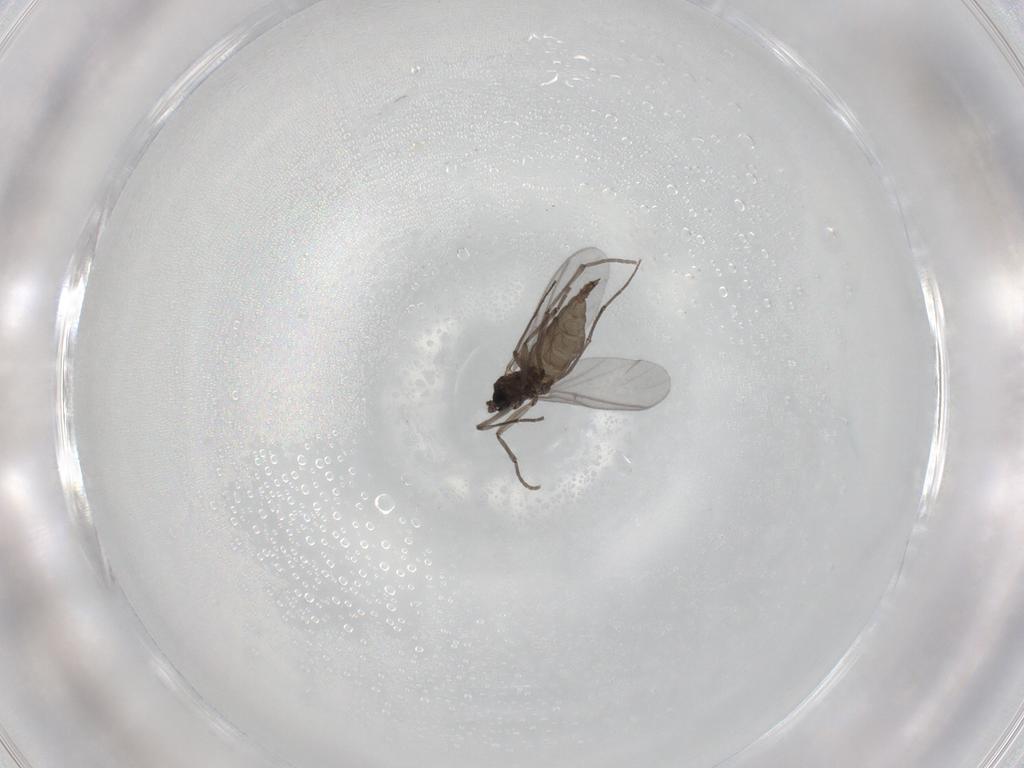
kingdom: Animalia
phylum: Arthropoda
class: Insecta
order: Diptera
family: Sciaridae
